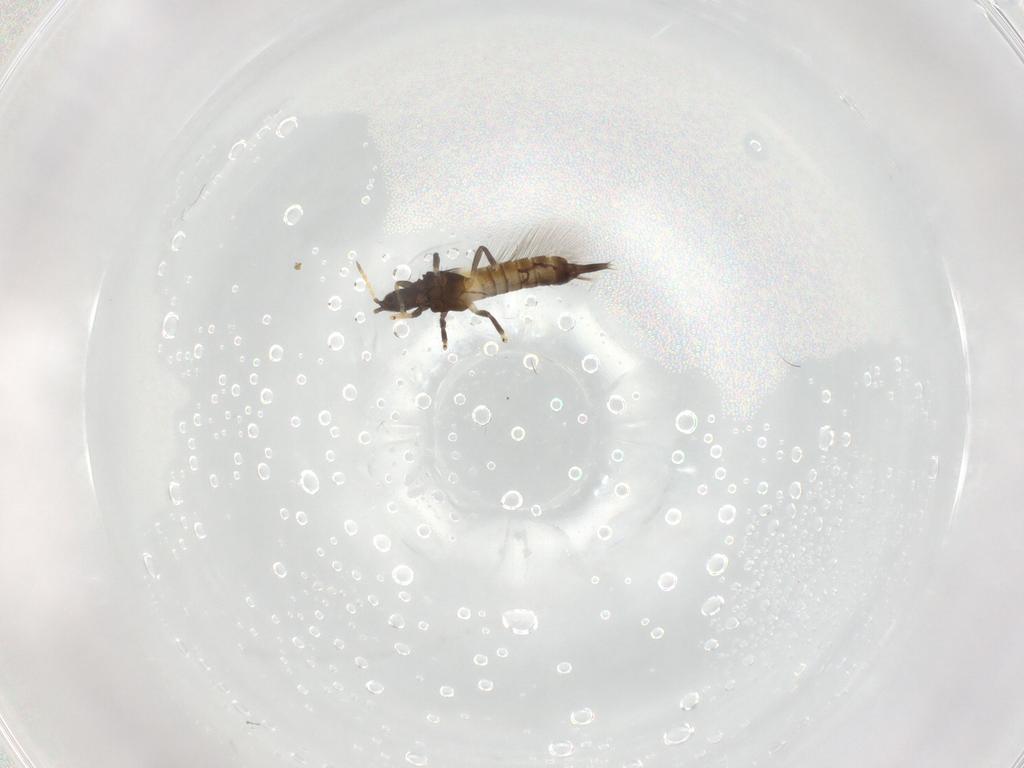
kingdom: Animalia
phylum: Arthropoda
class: Insecta
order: Thysanoptera
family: Phlaeothripidae
